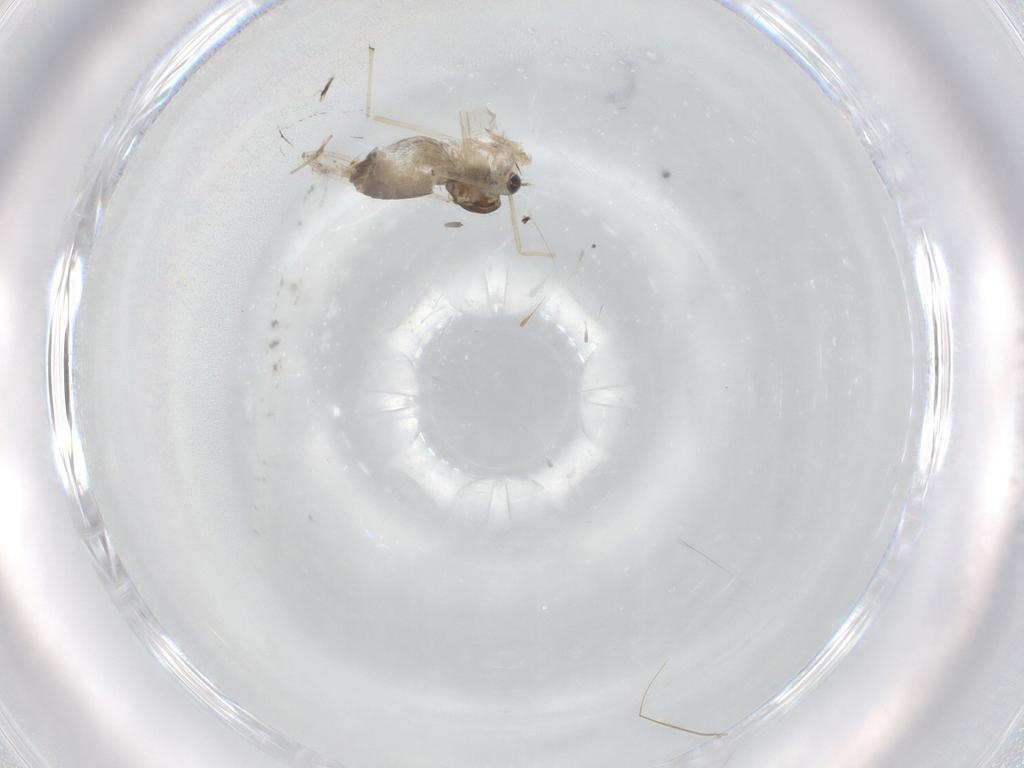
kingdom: Animalia
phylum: Arthropoda
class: Insecta
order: Diptera
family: Chironomidae
